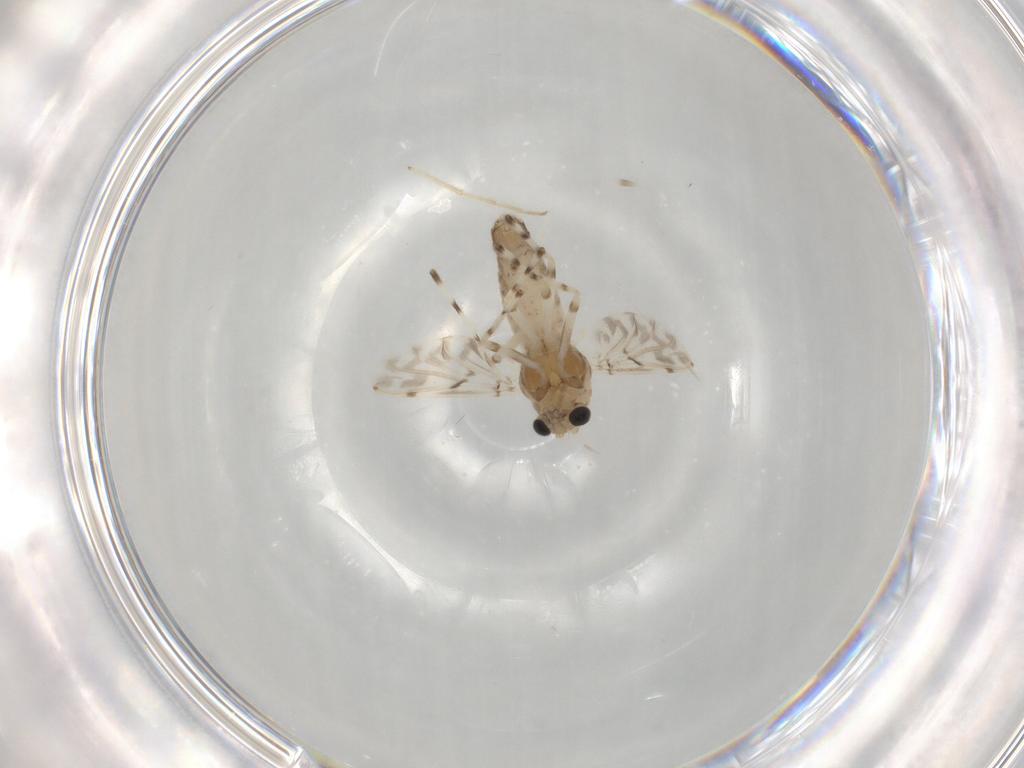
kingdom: Animalia
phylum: Arthropoda
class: Insecta
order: Diptera
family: Chironomidae
